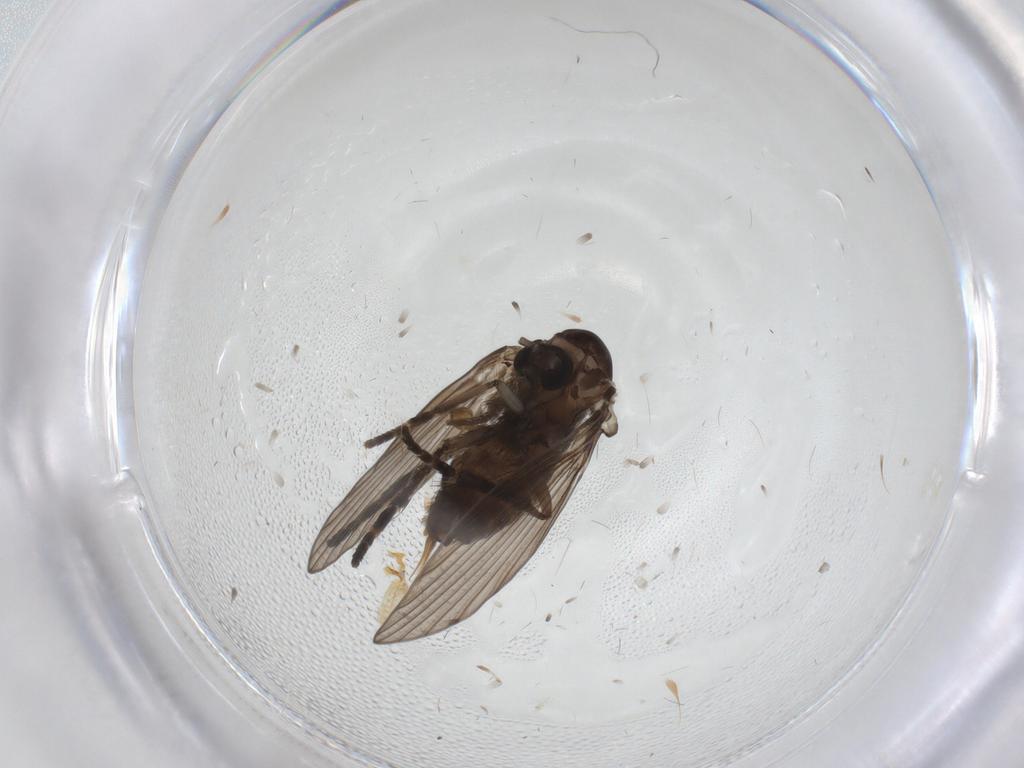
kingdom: Animalia
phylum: Arthropoda
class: Insecta
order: Diptera
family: Psychodidae
